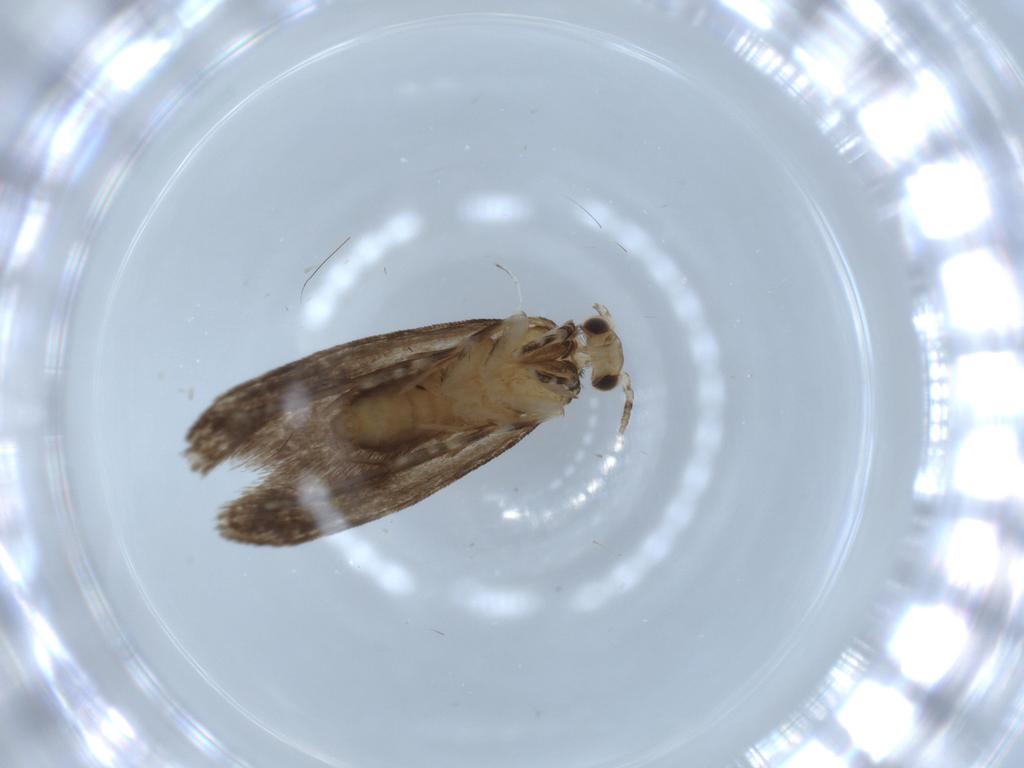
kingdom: Animalia
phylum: Arthropoda
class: Insecta
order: Lepidoptera
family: Tineidae
